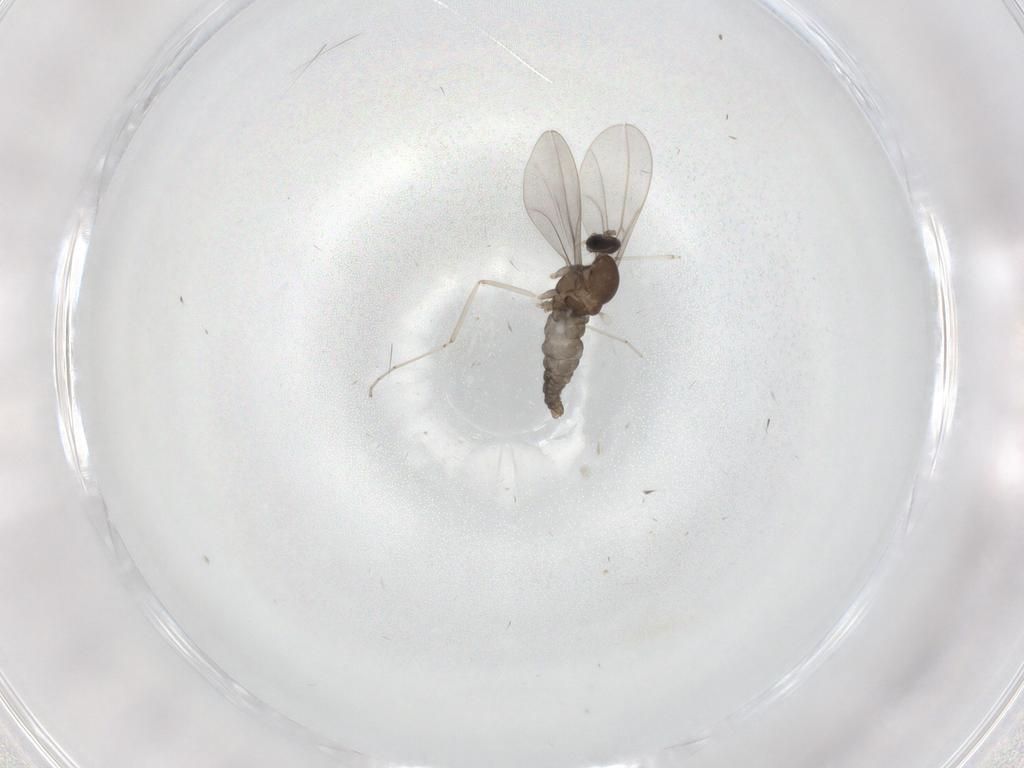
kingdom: Animalia
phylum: Arthropoda
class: Insecta
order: Diptera
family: Cecidomyiidae
